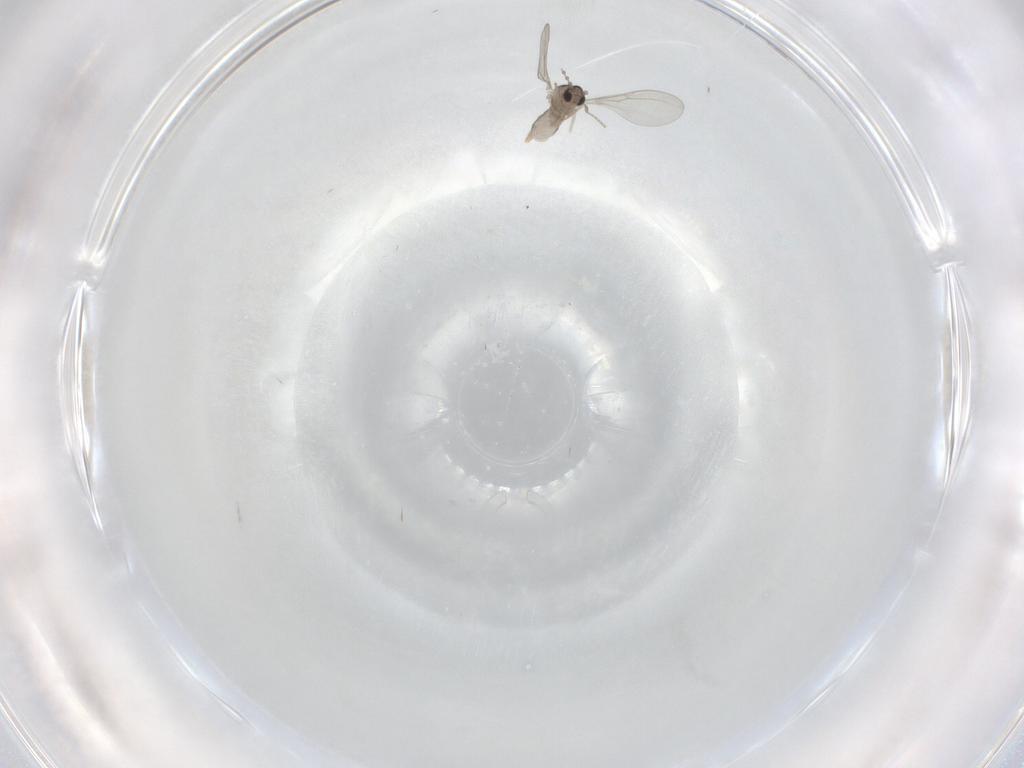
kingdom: Animalia
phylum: Arthropoda
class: Insecta
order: Diptera
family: Cecidomyiidae
